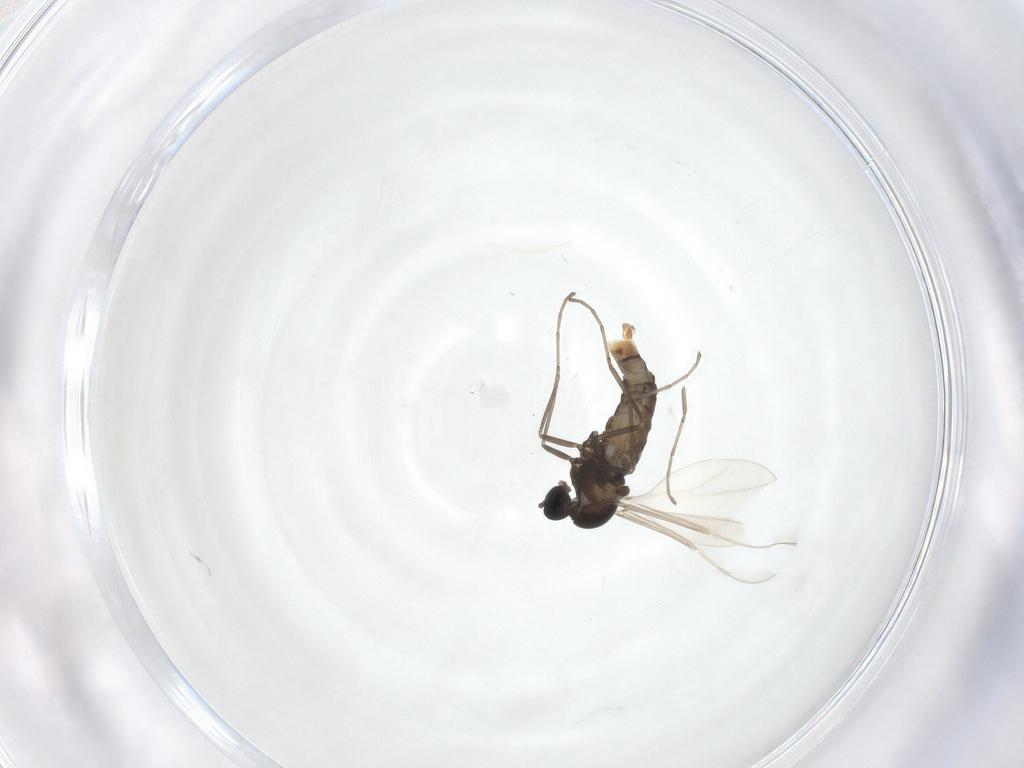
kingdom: Animalia
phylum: Arthropoda
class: Insecta
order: Diptera
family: Cecidomyiidae
